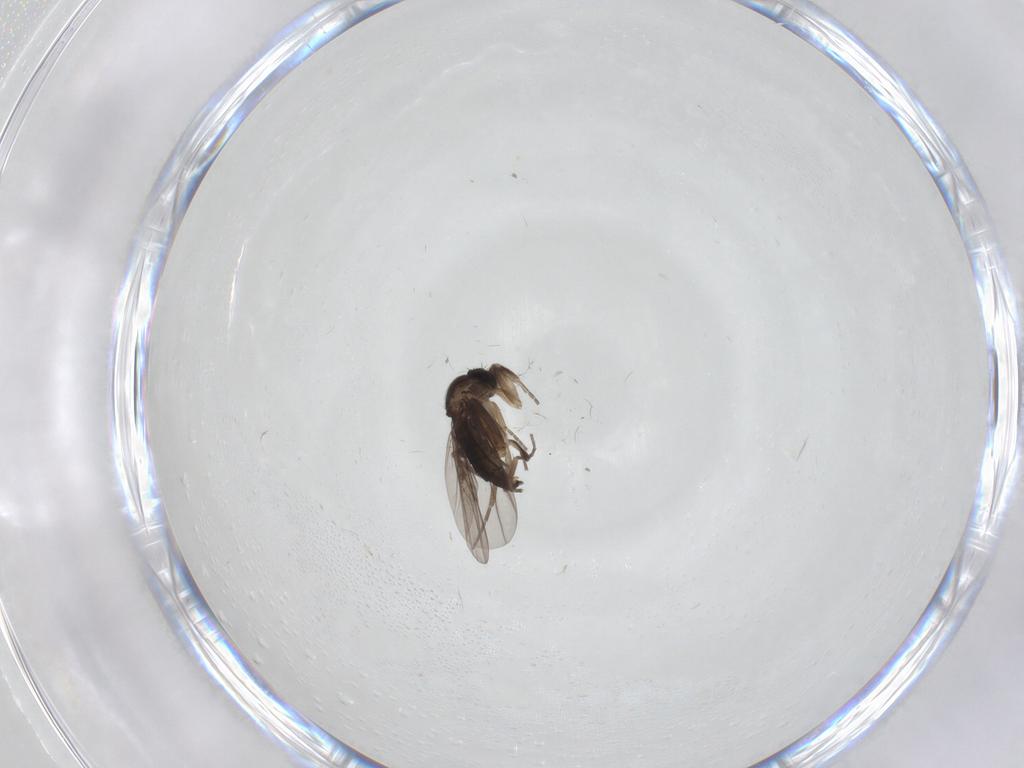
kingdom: Animalia
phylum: Arthropoda
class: Insecta
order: Diptera
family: Chironomidae
